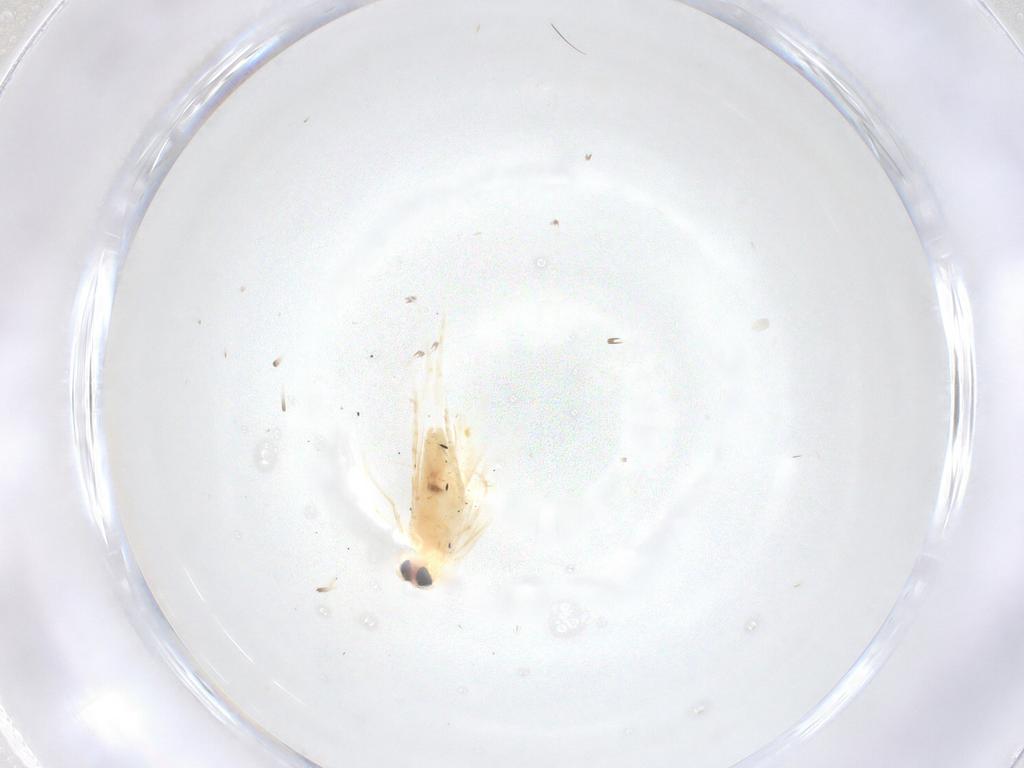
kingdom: Animalia
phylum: Arthropoda
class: Insecta
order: Lepidoptera
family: Nepticulidae
